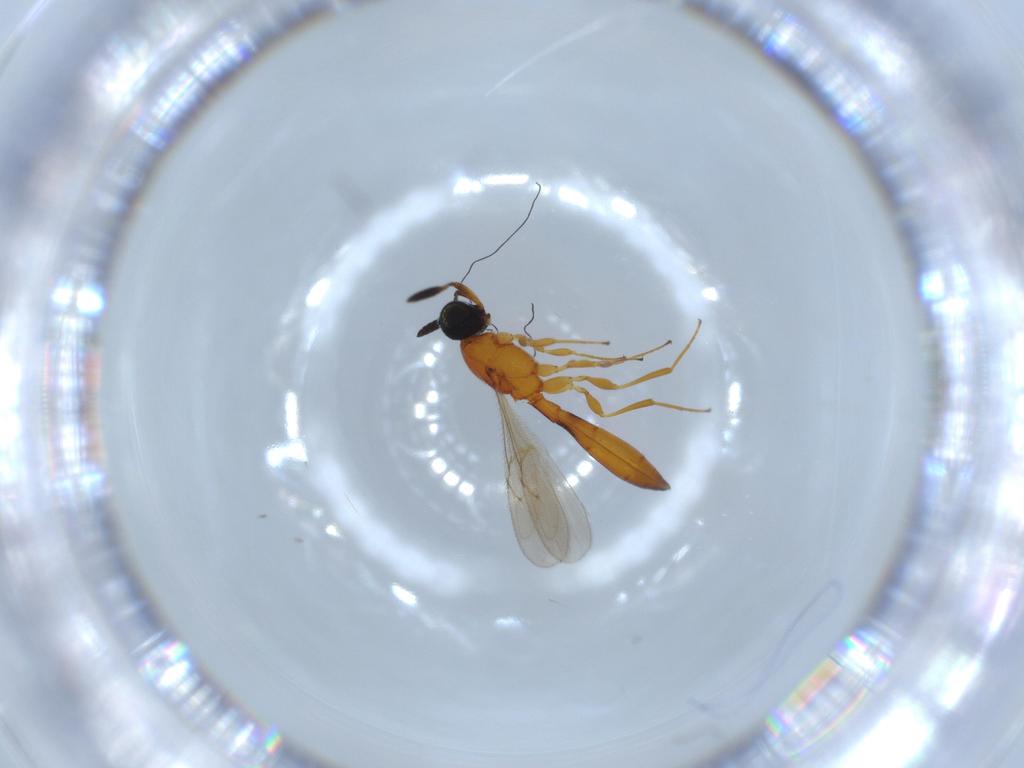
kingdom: Animalia
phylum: Arthropoda
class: Insecta
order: Hymenoptera
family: Scelionidae
